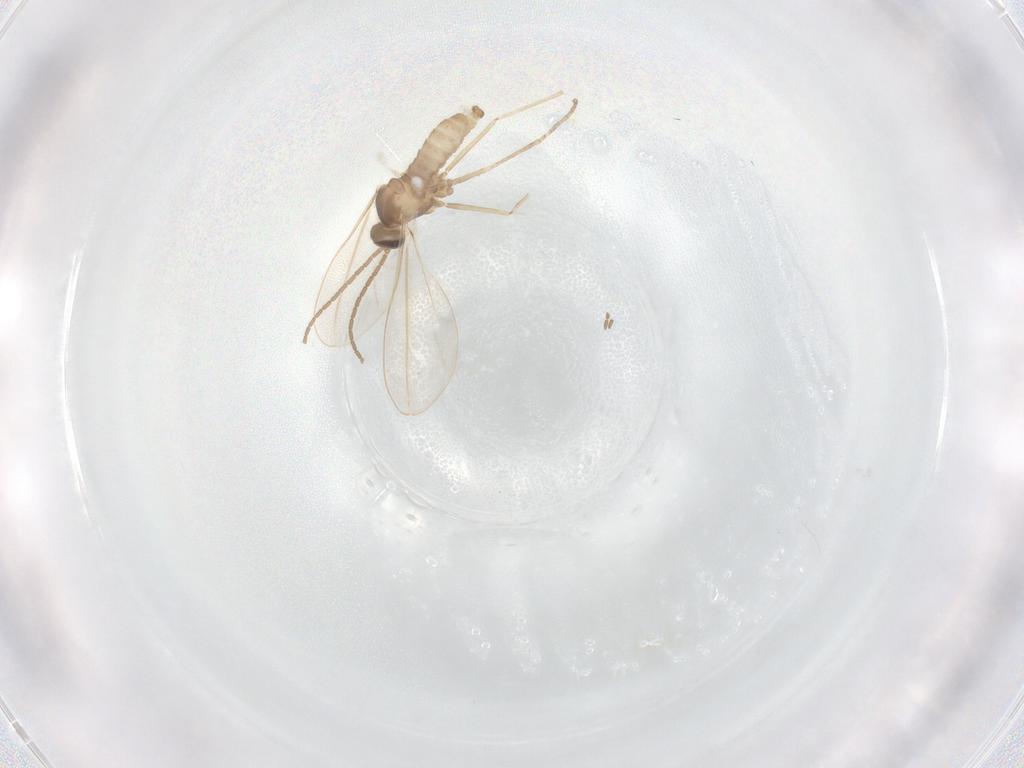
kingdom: Animalia
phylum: Arthropoda
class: Insecta
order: Diptera
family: Cecidomyiidae
